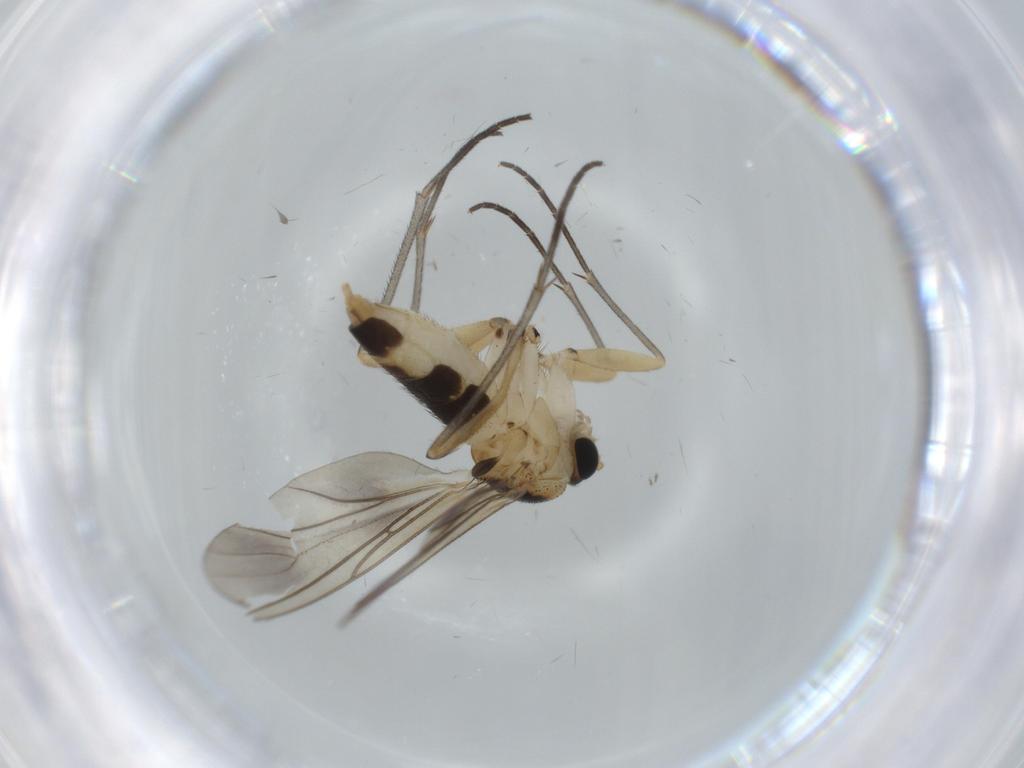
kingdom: Animalia
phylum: Arthropoda
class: Insecta
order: Diptera
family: Sciaridae
